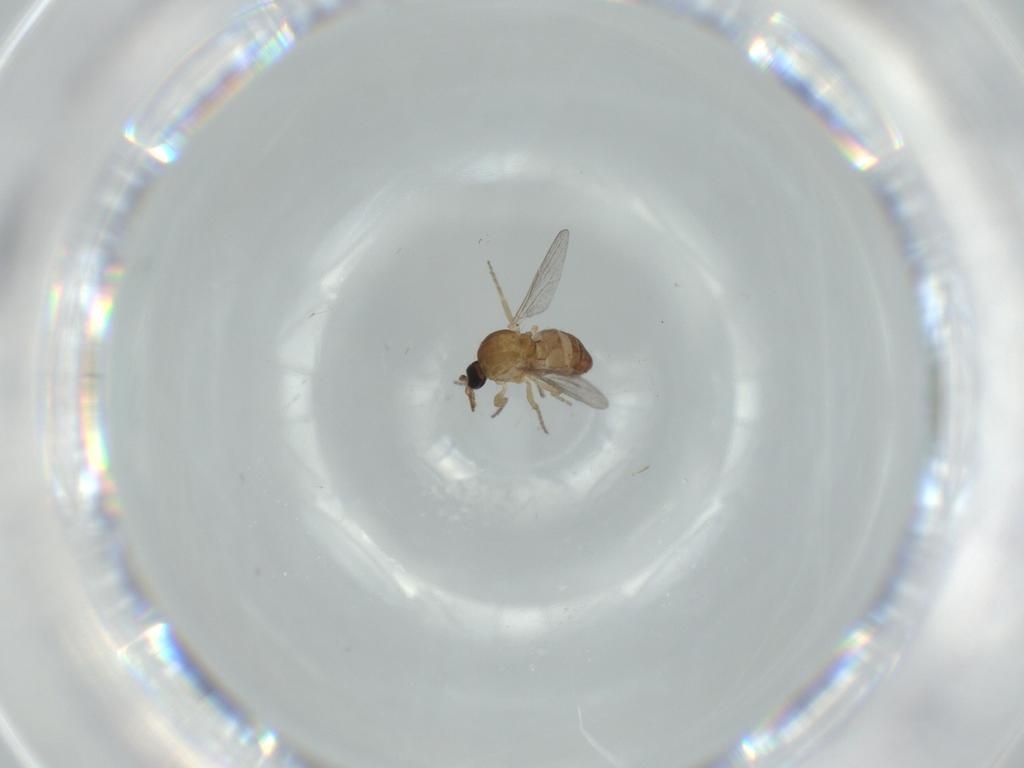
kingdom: Animalia
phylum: Arthropoda
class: Insecta
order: Diptera
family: Ceratopogonidae
